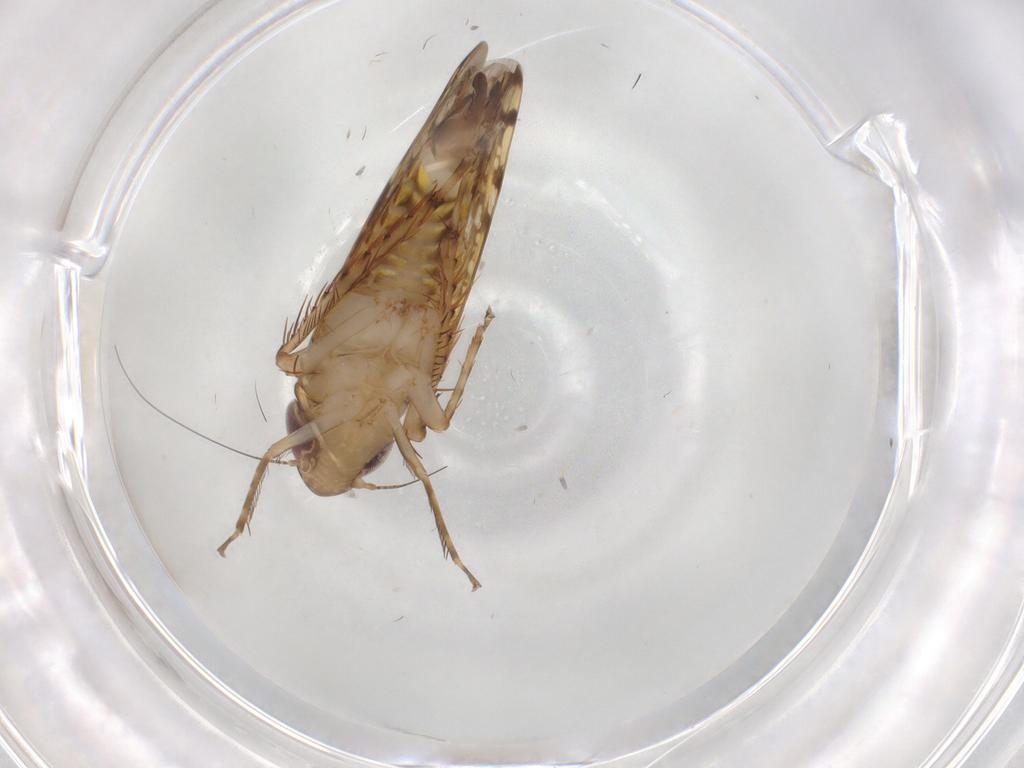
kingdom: Animalia
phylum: Arthropoda
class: Insecta
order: Hemiptera
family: Cicadellidae
